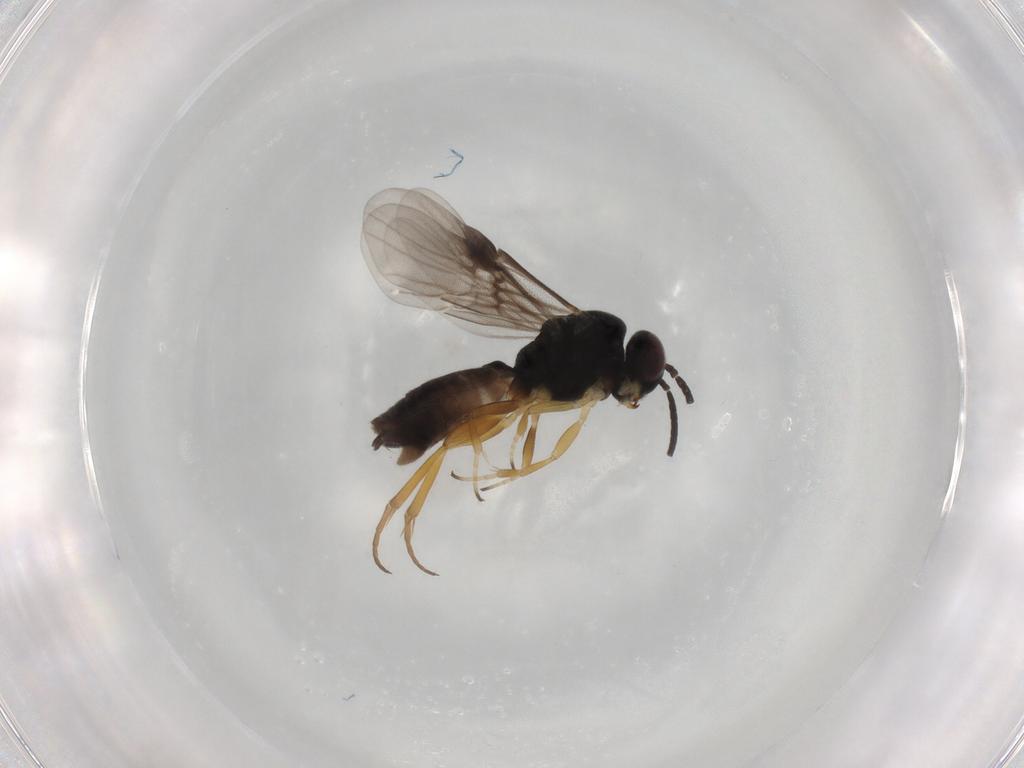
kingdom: Animalia
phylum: Arthropoda
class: Insecta
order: Hymenoptera
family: Braconidae
